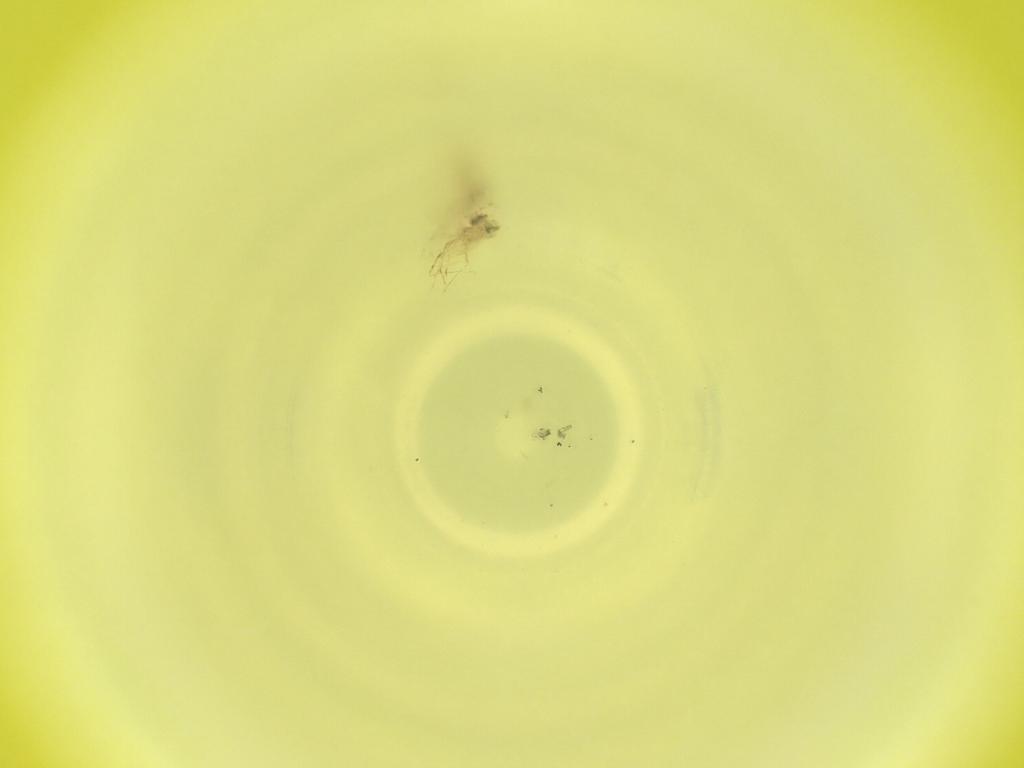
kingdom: Animalia
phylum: Arthropoda
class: Insecta
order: Diptera
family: Cecidomyiidae
